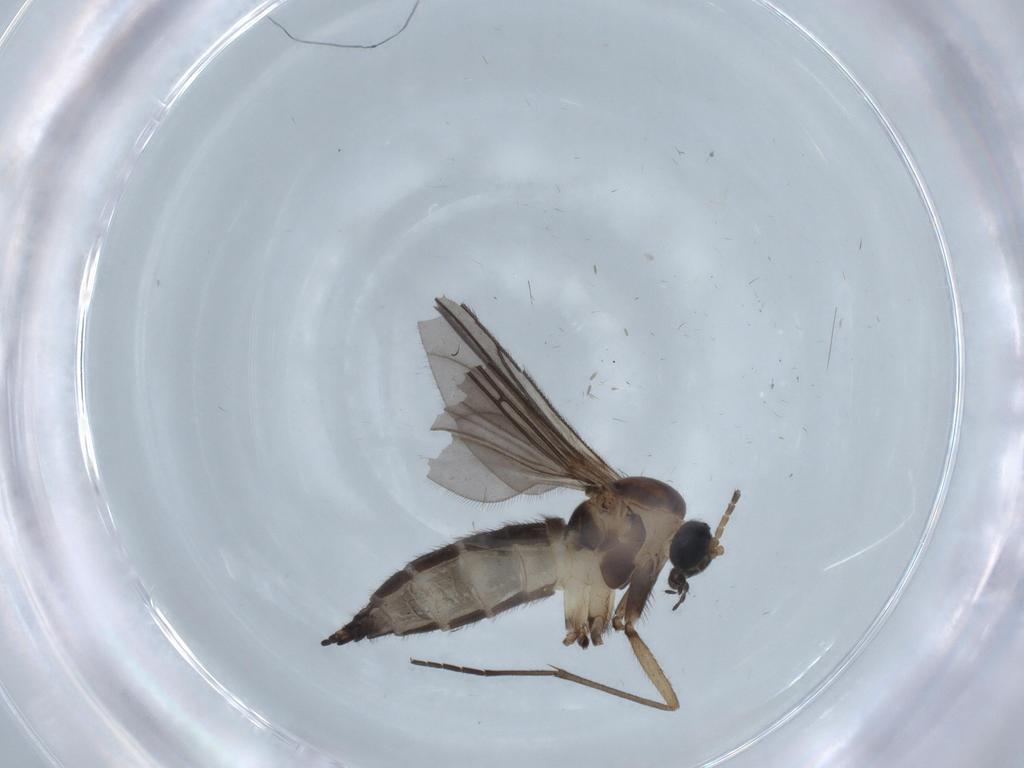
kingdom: Animalia
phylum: Arthropoda
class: Insecta
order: Diptera
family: Sciaridae
